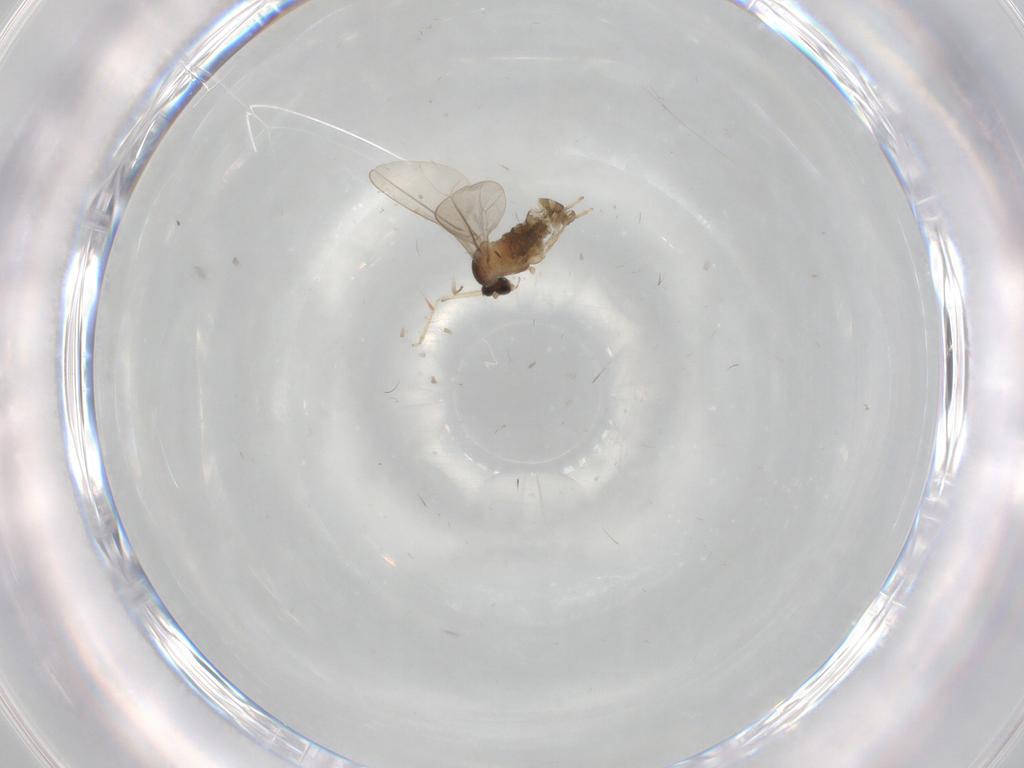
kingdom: Animalia
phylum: Arthropoda
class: Insecta
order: Diptera
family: Cecidomyiidae
